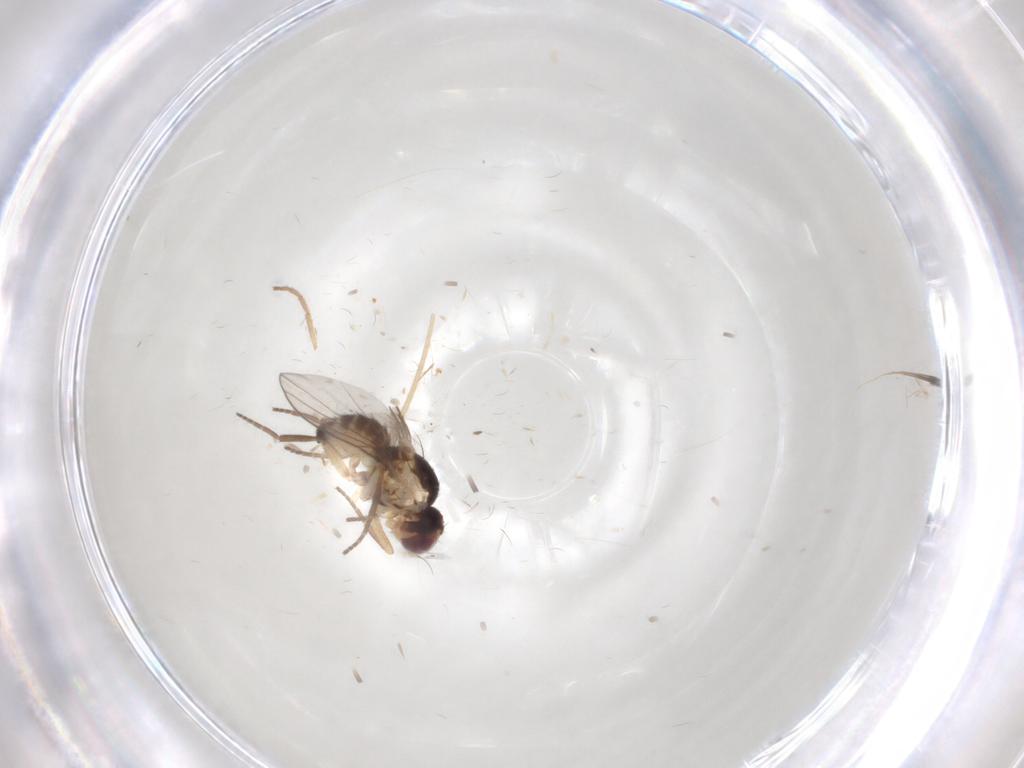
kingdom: Animalia
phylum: Arthropoda
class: Insecta
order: Diptera
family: Agromyzidae
